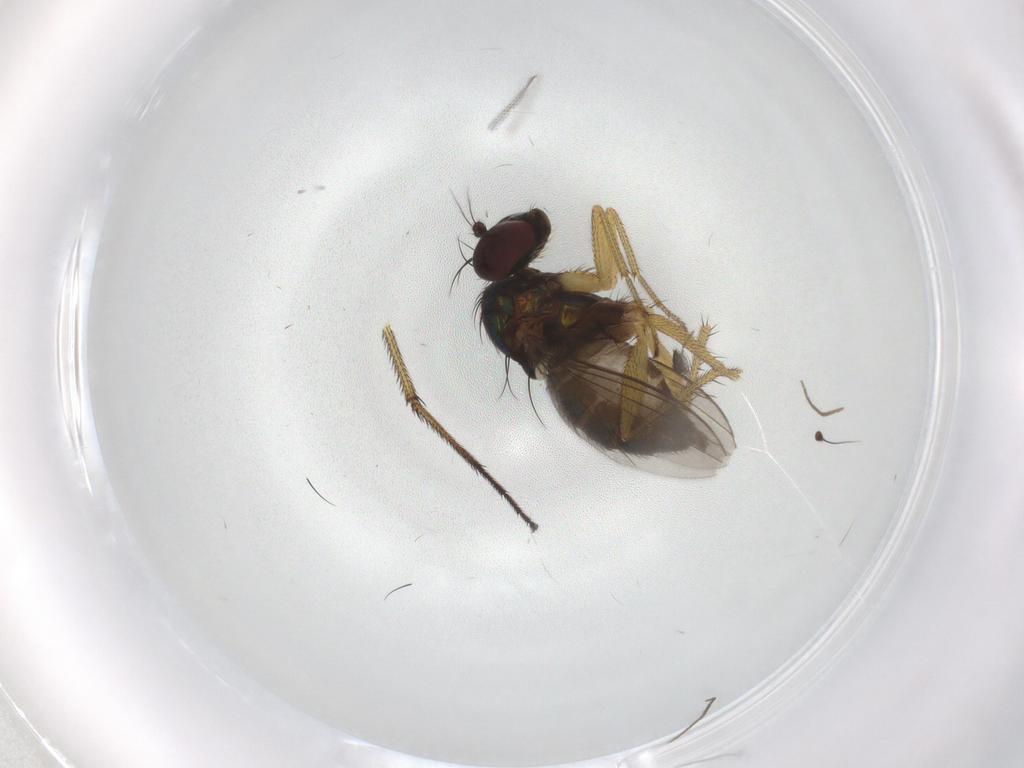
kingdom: Animalia
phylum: Arthropoda
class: Insecta
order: Diptera
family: Dolichopodidae
